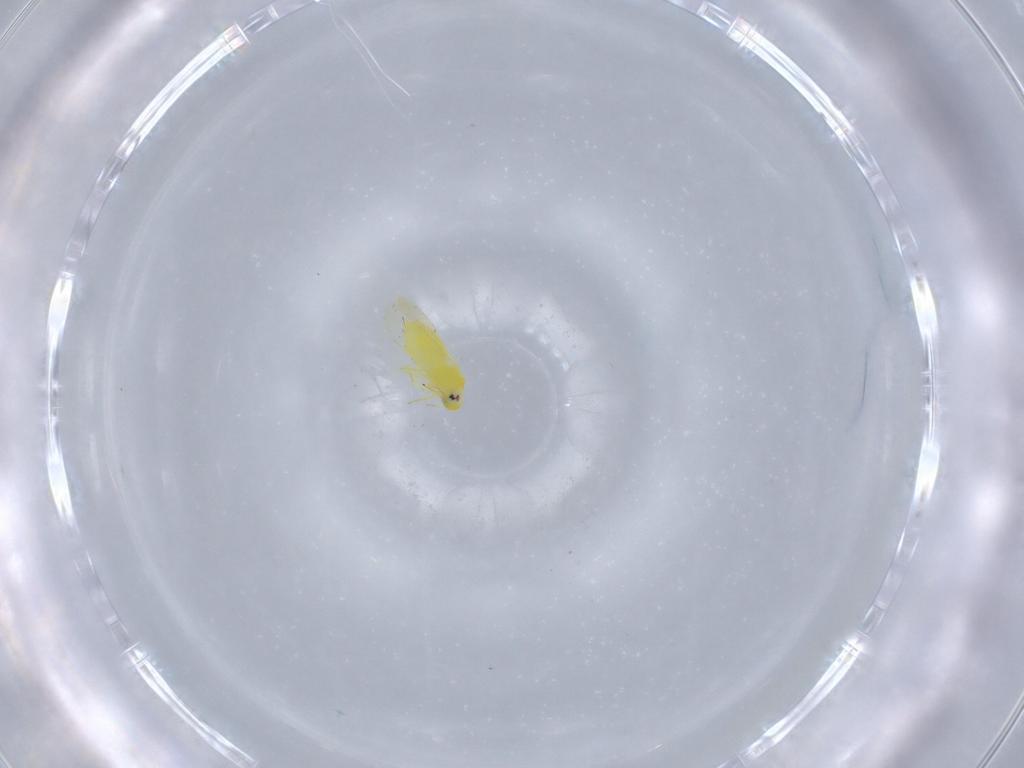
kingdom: Animalia
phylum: Arthropoda
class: Insecta
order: Hemiptera
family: Aleyrodidae
